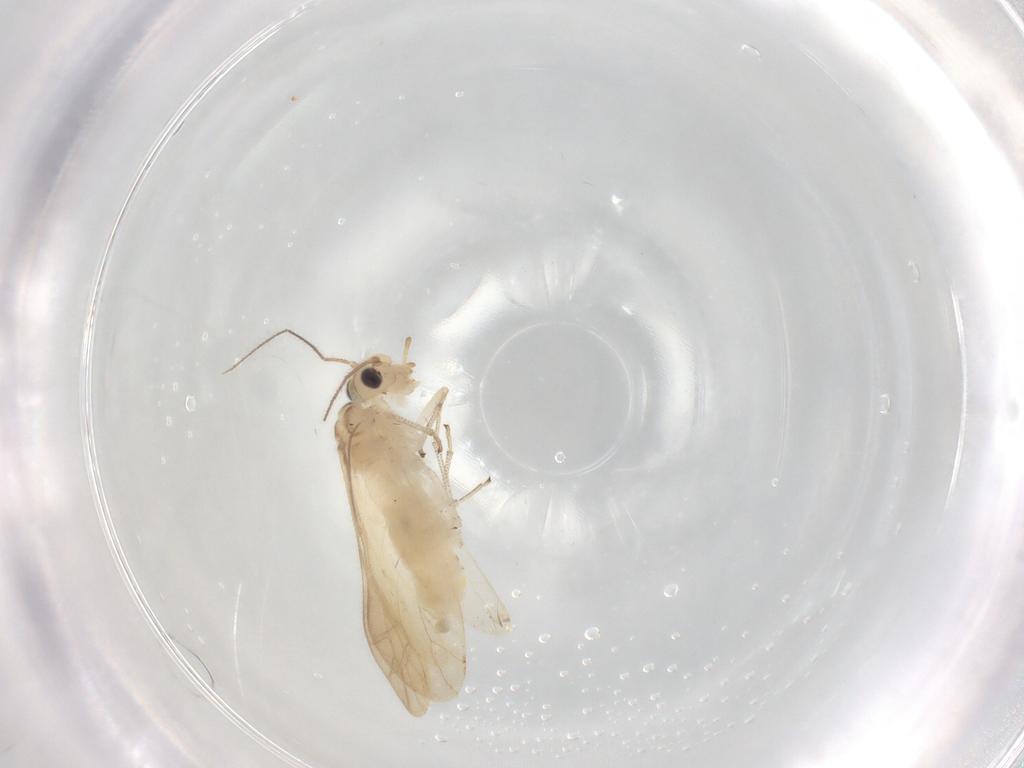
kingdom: Animalia
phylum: Arthropoda
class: Insecta
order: Psocodea
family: Caeciliusidae
